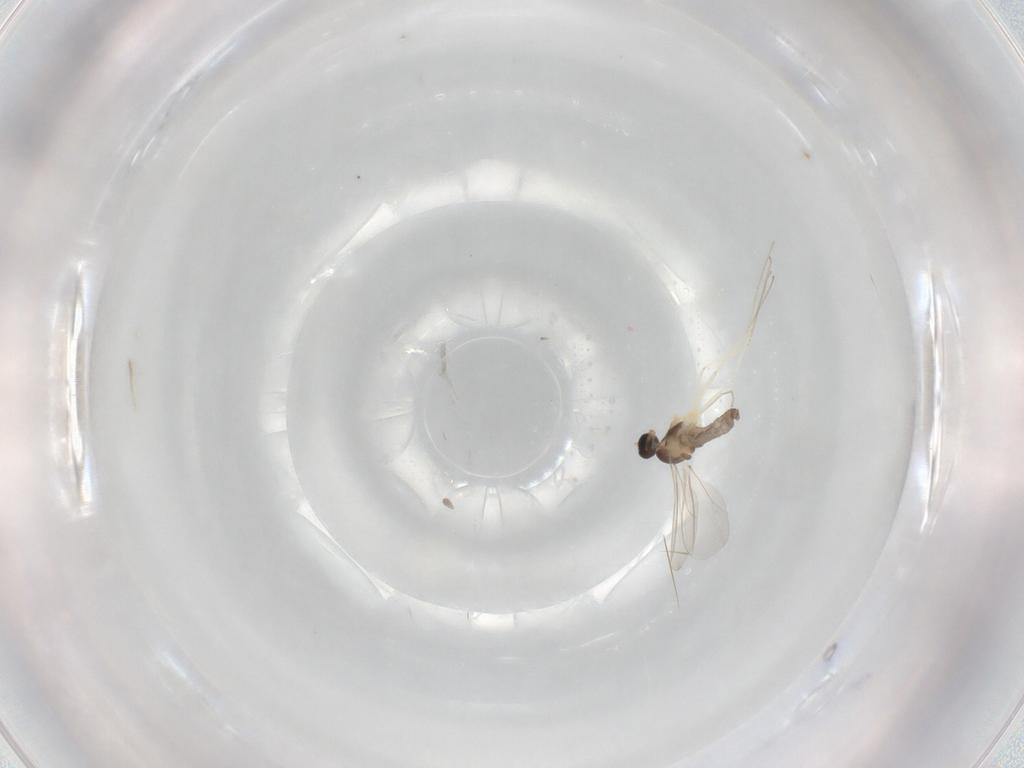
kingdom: Animalia
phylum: Arthropoda
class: Insecta
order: Diptera
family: Cecidomyiidae
